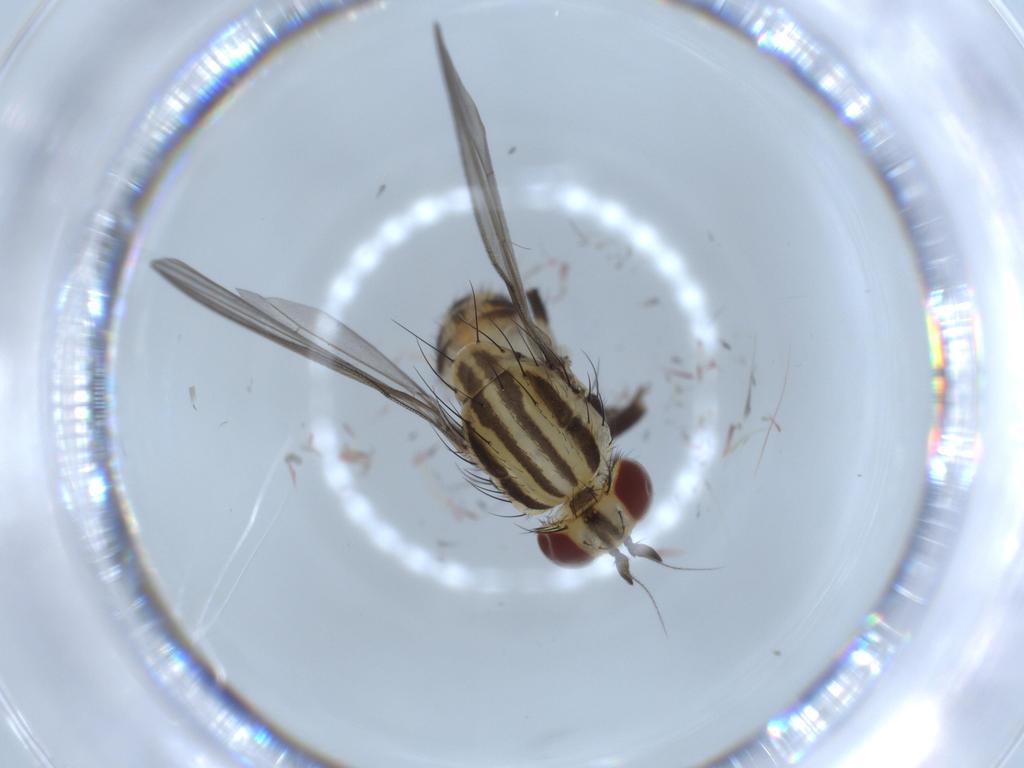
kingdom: Animalia
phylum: Arthropoda
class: Insecta
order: Diptera
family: Lauxaniidae
